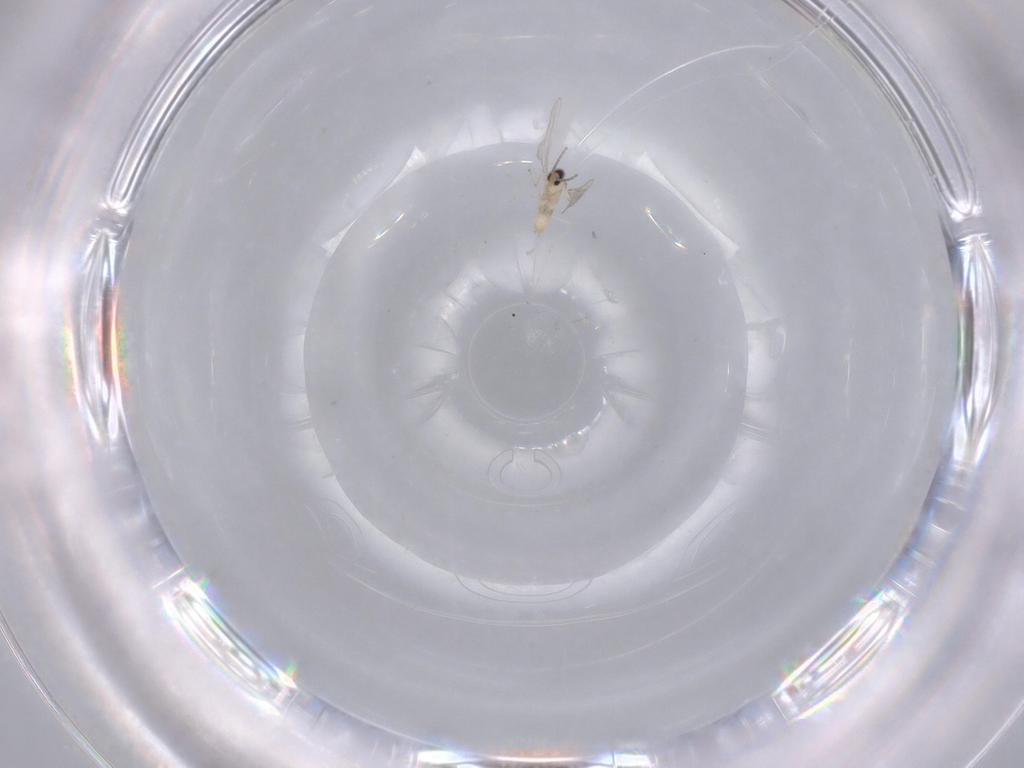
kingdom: Animalia
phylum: Arthropoda
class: Insecta
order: Diptera
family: Cecidomyiidae
